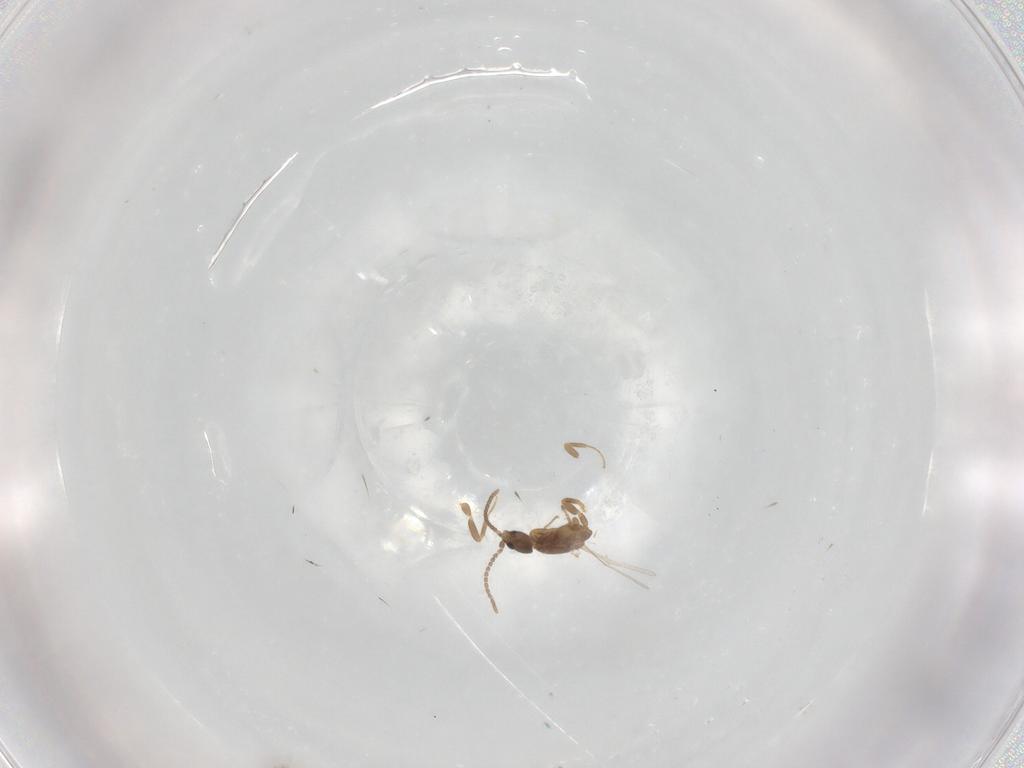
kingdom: Animalia
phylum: Arthropoda
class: Insecta
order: Hymenoptera
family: Formicidae
